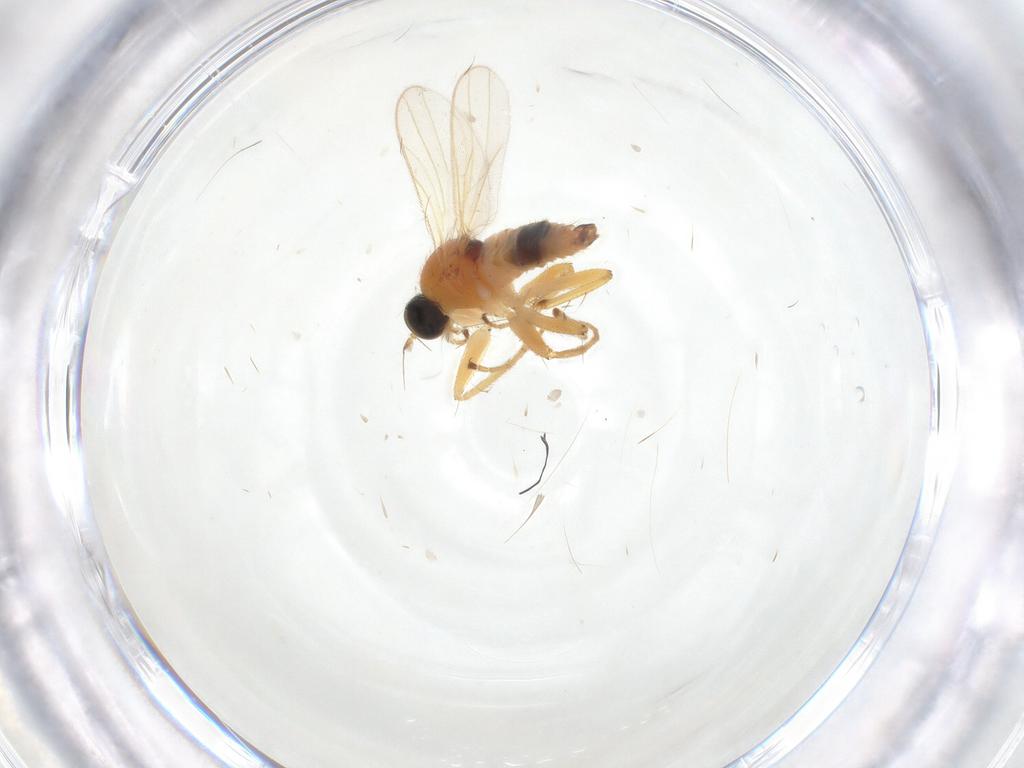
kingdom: Animalia
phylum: Arthropoda
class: Insecta
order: Diptera
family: Hybotidae
